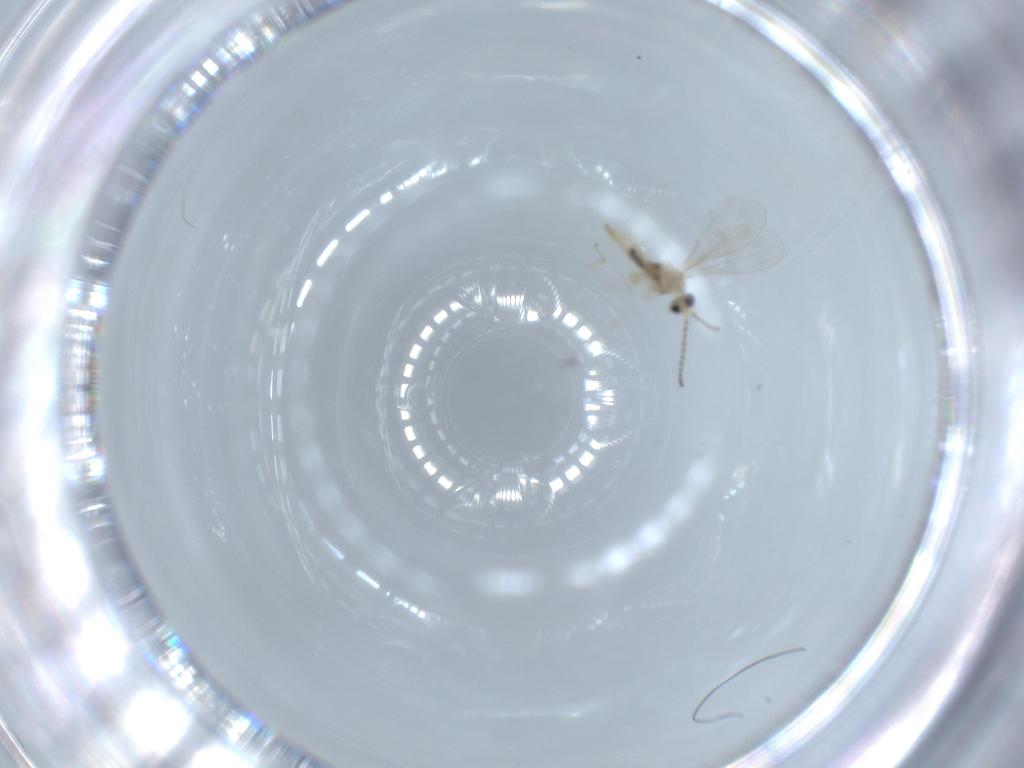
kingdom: Animalia
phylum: Arthropoda
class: Insecta
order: Diptera
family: Cecidomyiidae
